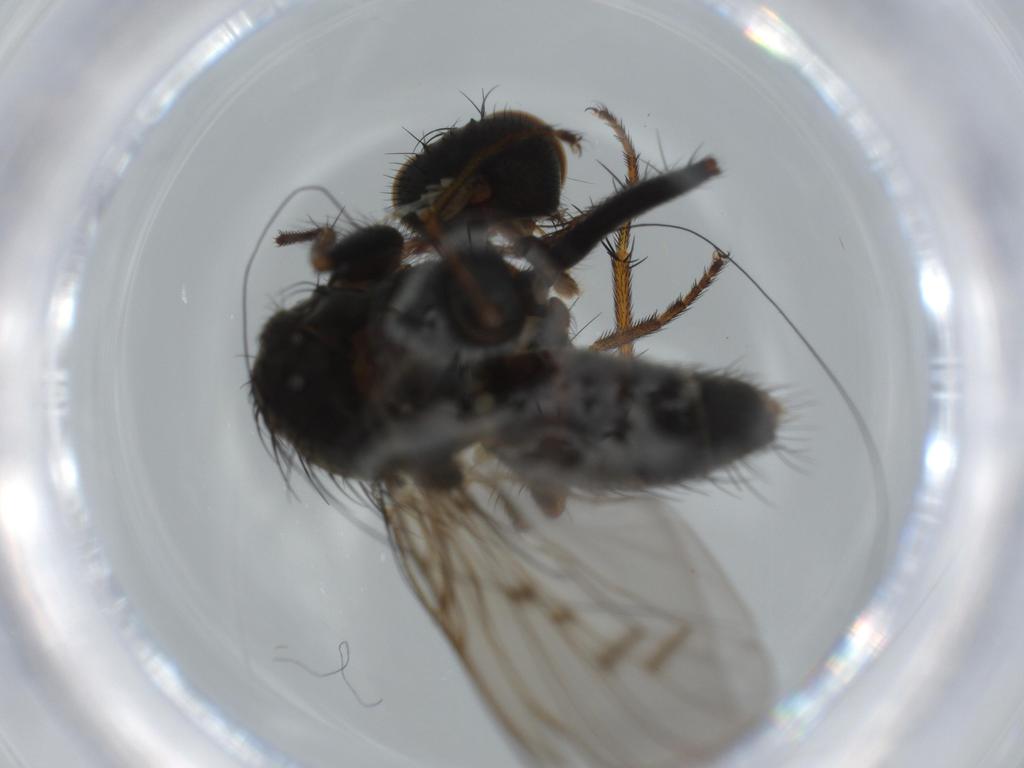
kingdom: Animalia
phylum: Arthropoda
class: Insecta
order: Diptera
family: Muscidae
